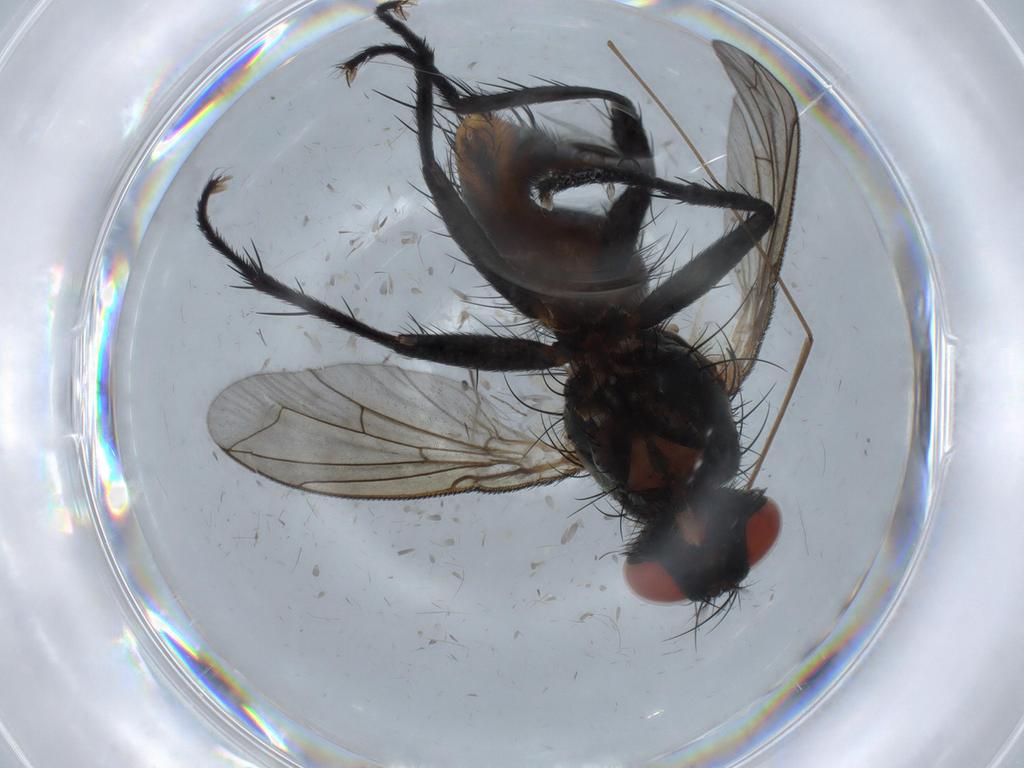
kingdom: Animalia
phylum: Arthropoda
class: Insecta
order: Diptera
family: Sarcophagidae
